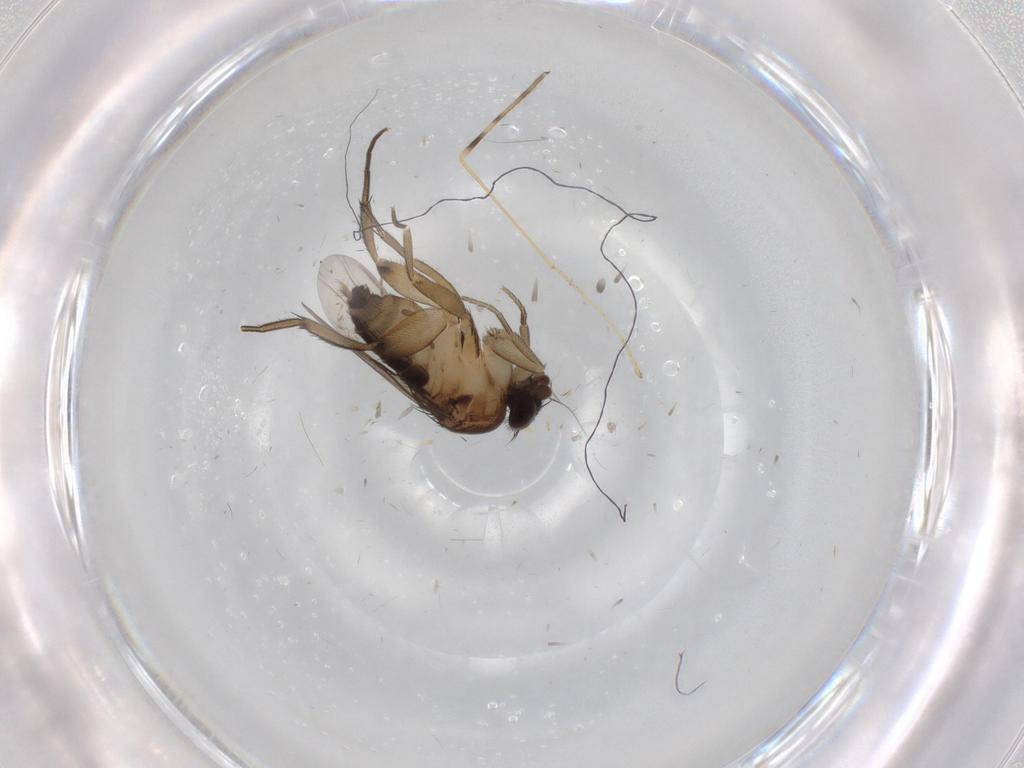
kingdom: Animalia
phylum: Arthropoda
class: Insecta
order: Diptera
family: Phoridae
